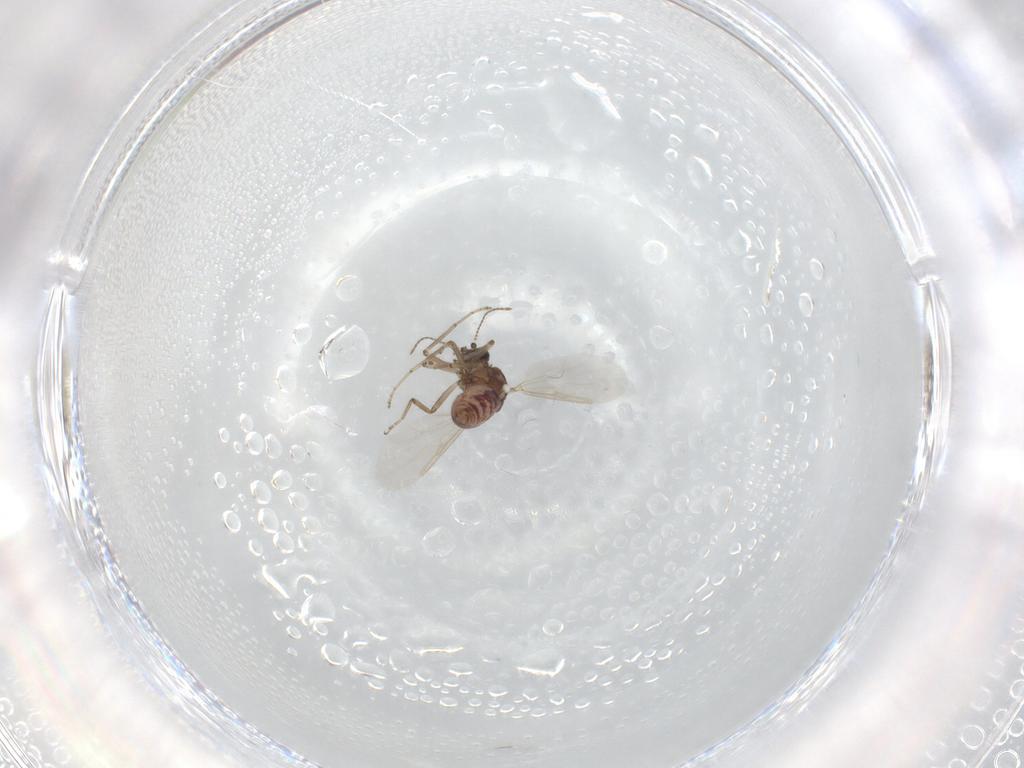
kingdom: Animalia
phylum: Arthropoda
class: Insecta
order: Diptera
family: Ceratopogonidae
